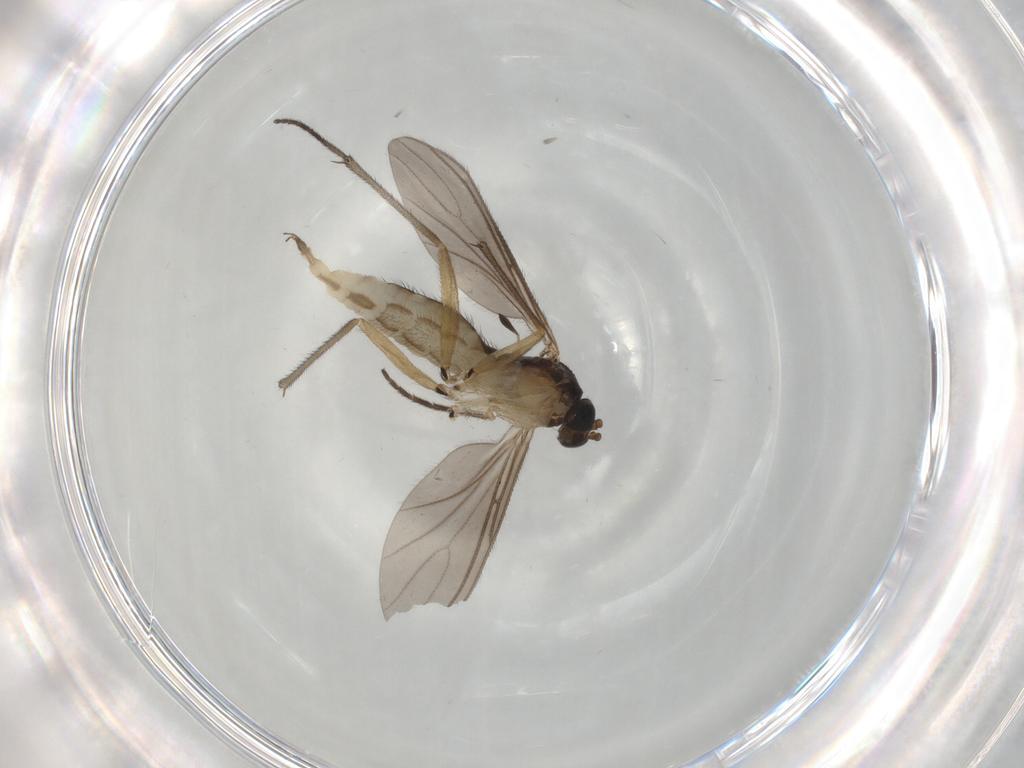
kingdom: Animalia
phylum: Arthropoda
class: Insecta
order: Diptera
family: Sciaridae
